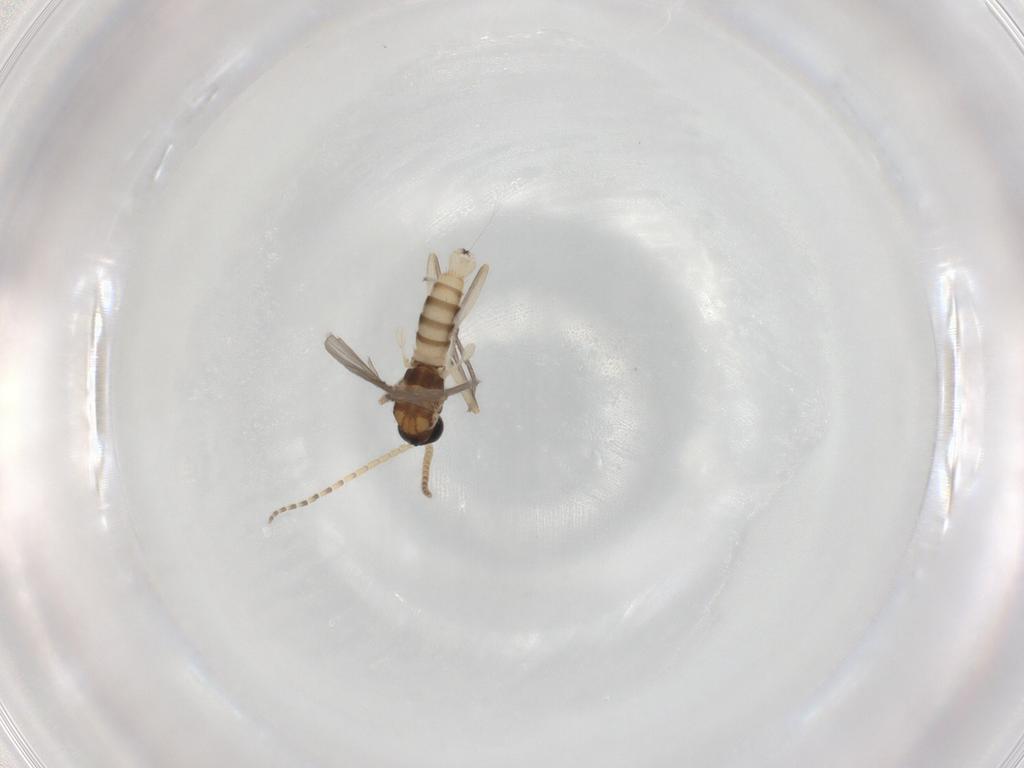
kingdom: Animalia
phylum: Arthropoda
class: Insecta
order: Diptera
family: Sciaridae
